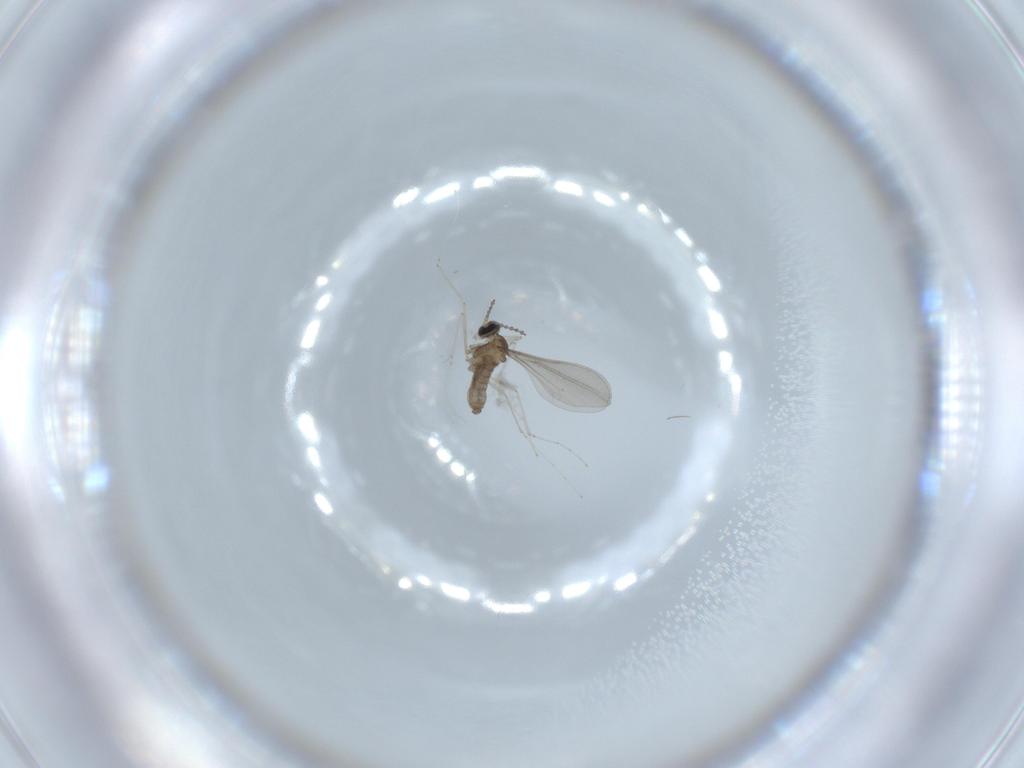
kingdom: Animalia
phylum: Arthropoda
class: Insecta
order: Diptera
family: Cecidomyiidae
